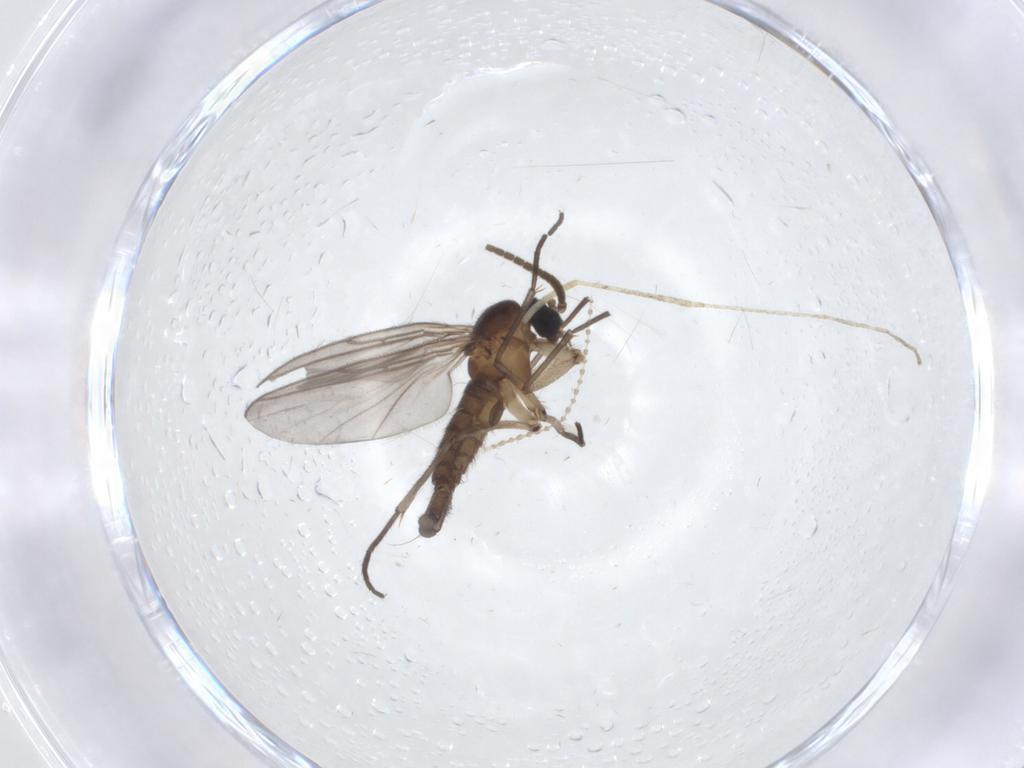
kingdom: Animalia
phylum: Arthropoda
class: Insecta
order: Diptera
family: Cecidomyiidae
